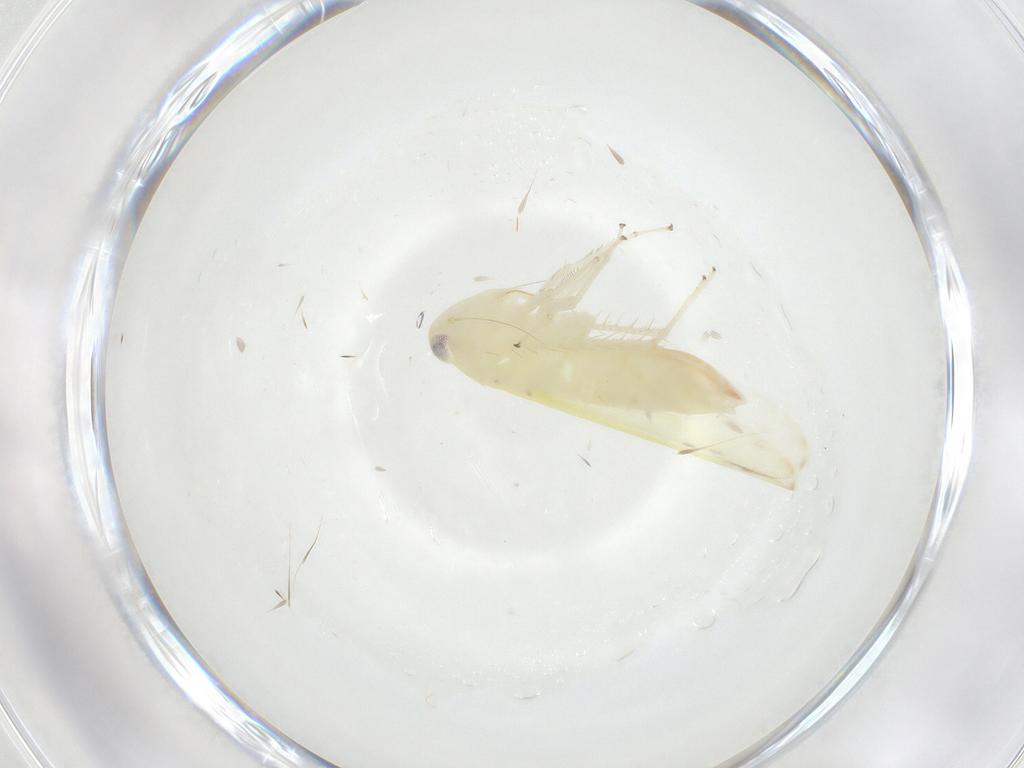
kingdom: Animalia
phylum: Arthropoda
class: Insecta
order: Hemiptera
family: Cicadellidae
